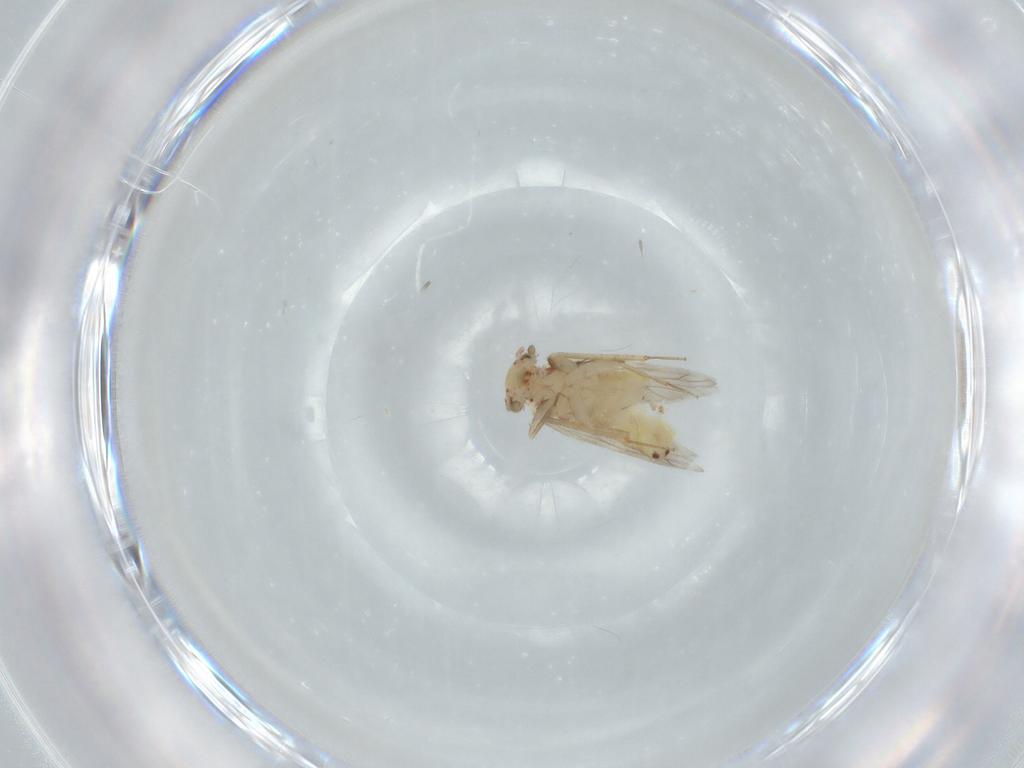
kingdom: Animalia
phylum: Arthropoda
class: Insecta
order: Psocodea
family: Lepidopsocidae
